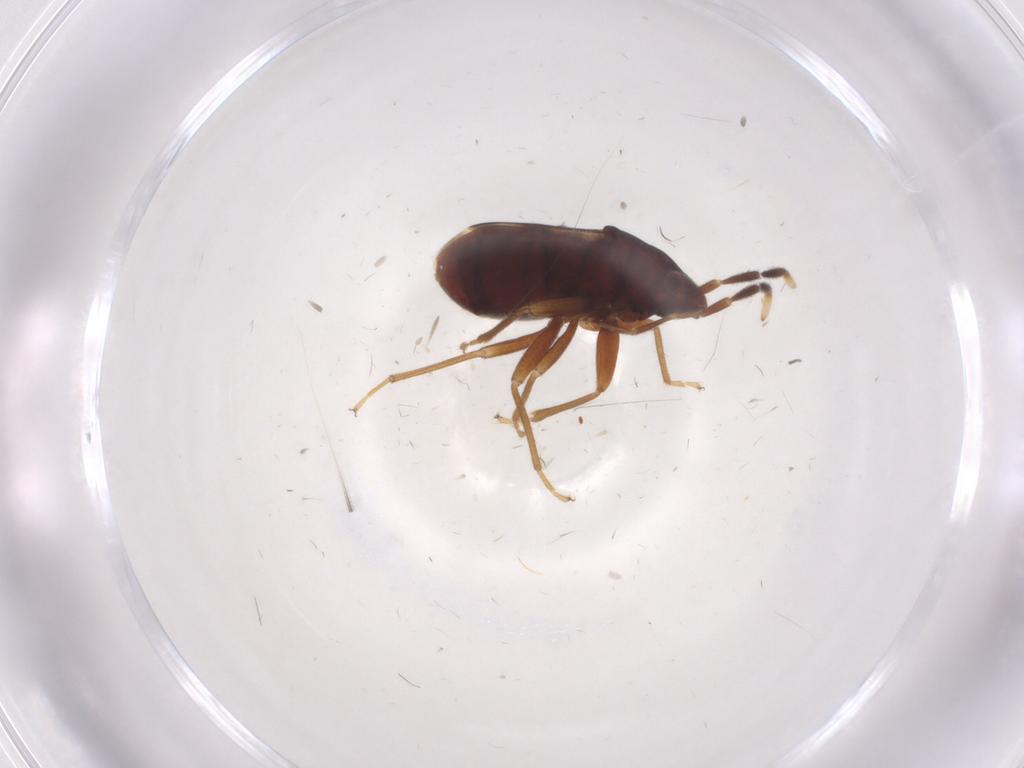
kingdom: Animalia
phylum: Arthropoda
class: Insecta
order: Hemiptera
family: Rhyparochromidae
